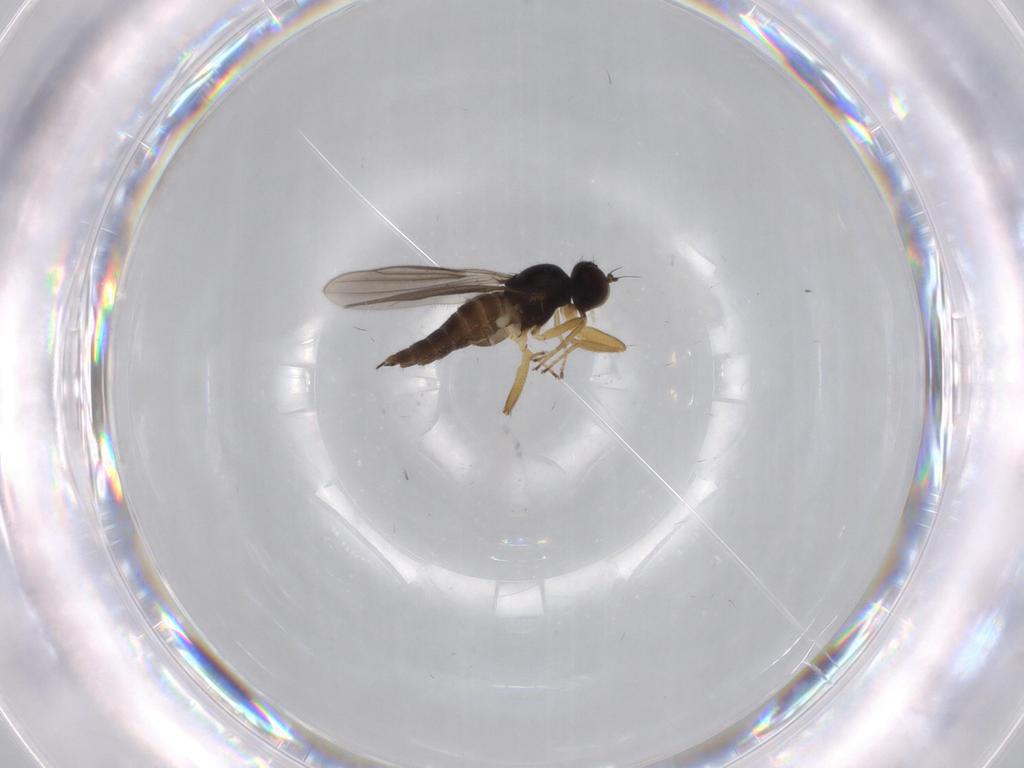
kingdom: Animalia
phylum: Arthropoda
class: Insecta
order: Diptera
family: Hybotidae
